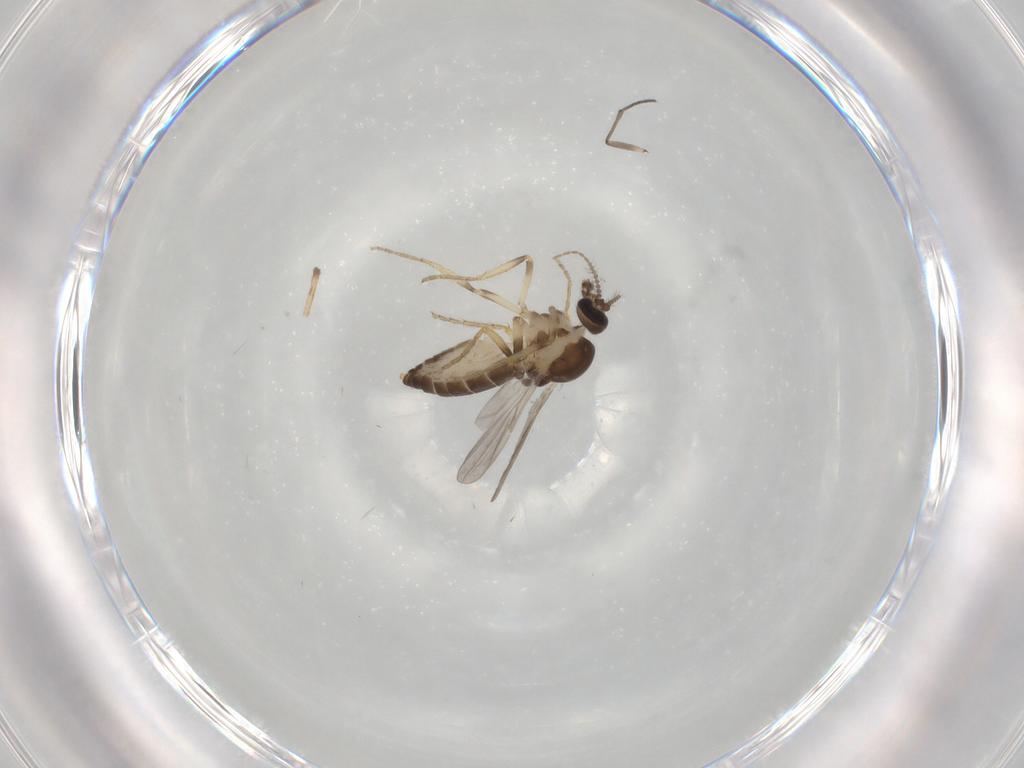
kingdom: Animalia
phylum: Arthropoda
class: Insecta
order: Diptera
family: Ceratopogonidae
